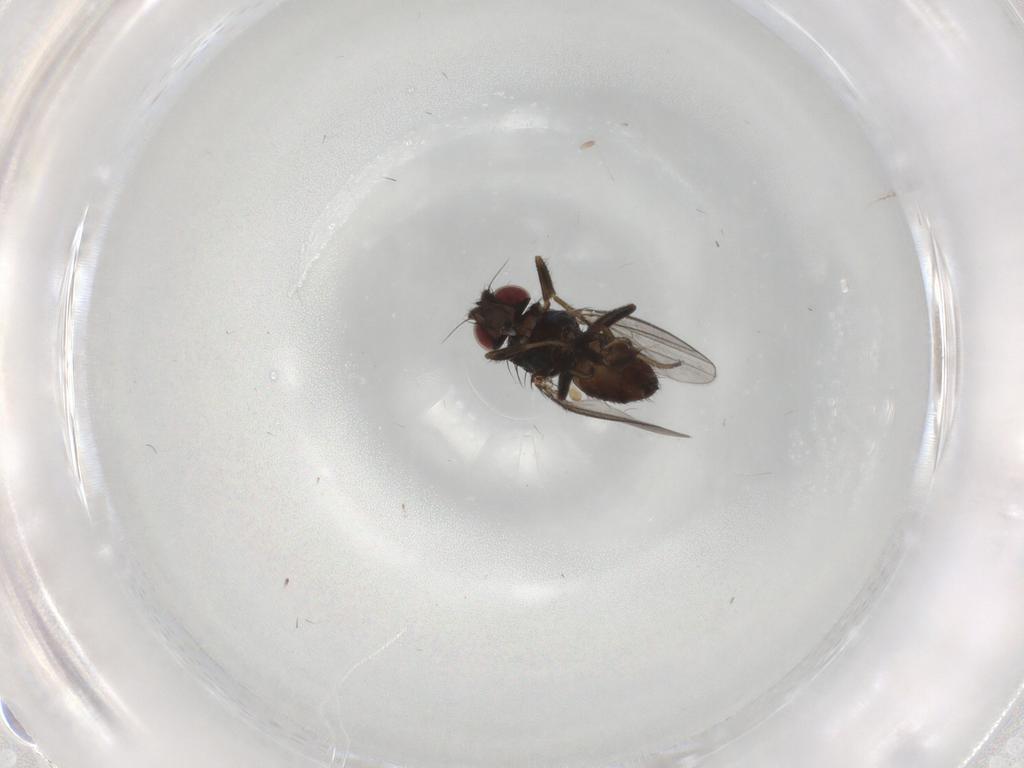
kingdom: Animalia
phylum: Arthropoda
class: Insecta
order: Diptera
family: Milichiidae
